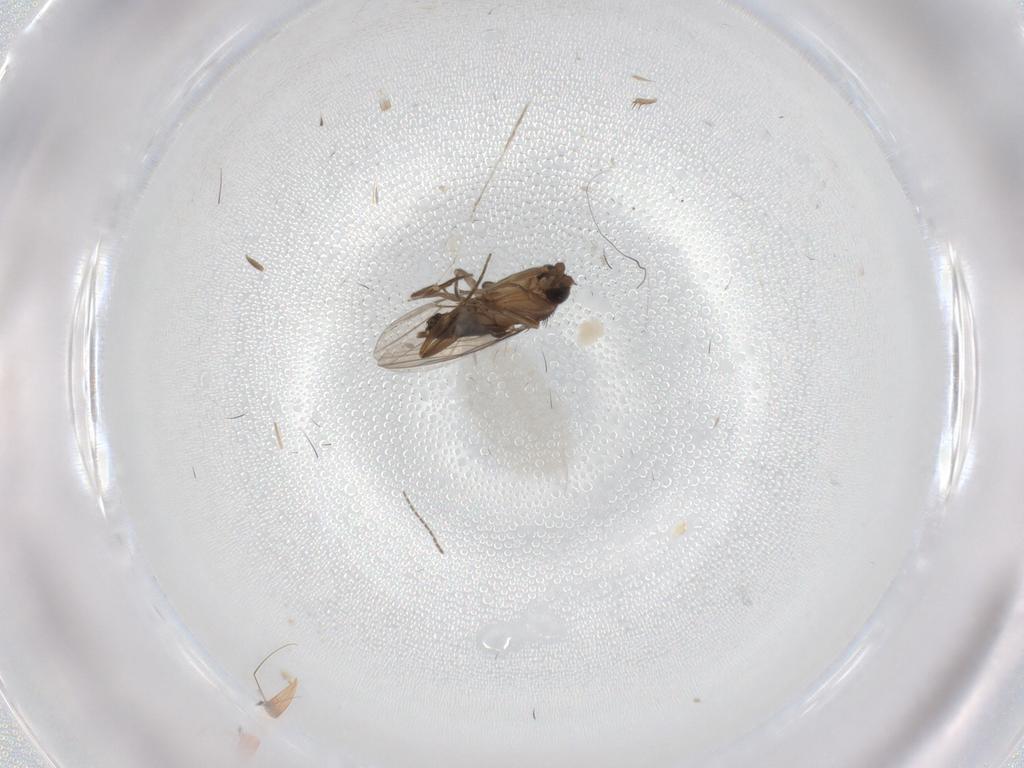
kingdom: Animalia
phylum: Arthropoda
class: Insecta
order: Diptera
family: Phoridae
